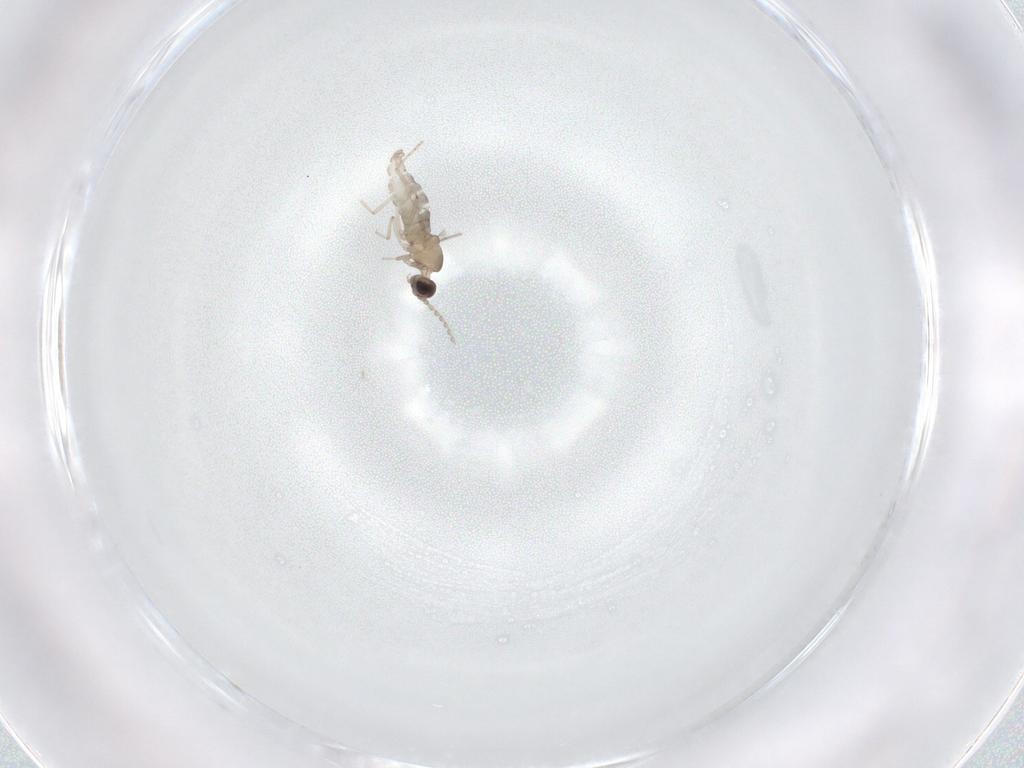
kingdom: Animalia
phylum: Arthropoda
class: Insecta
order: Diptera
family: Cecidomyiidae
